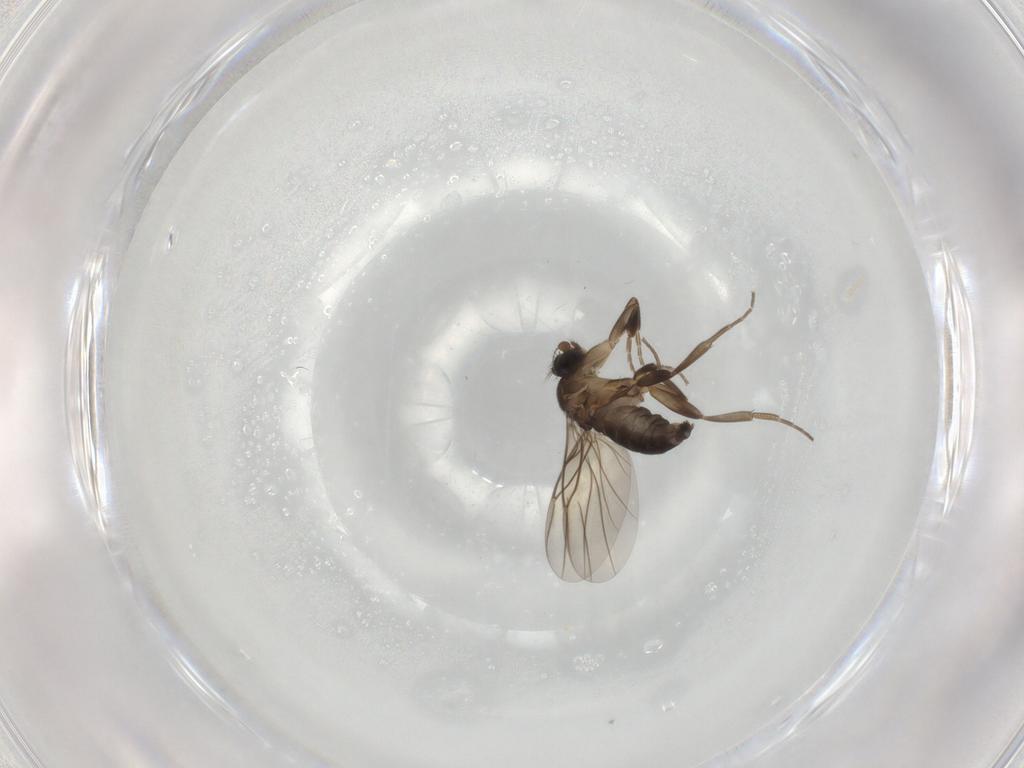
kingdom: Animalia
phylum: Arthropoda
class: Insecta
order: Diptera
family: Phoridae
